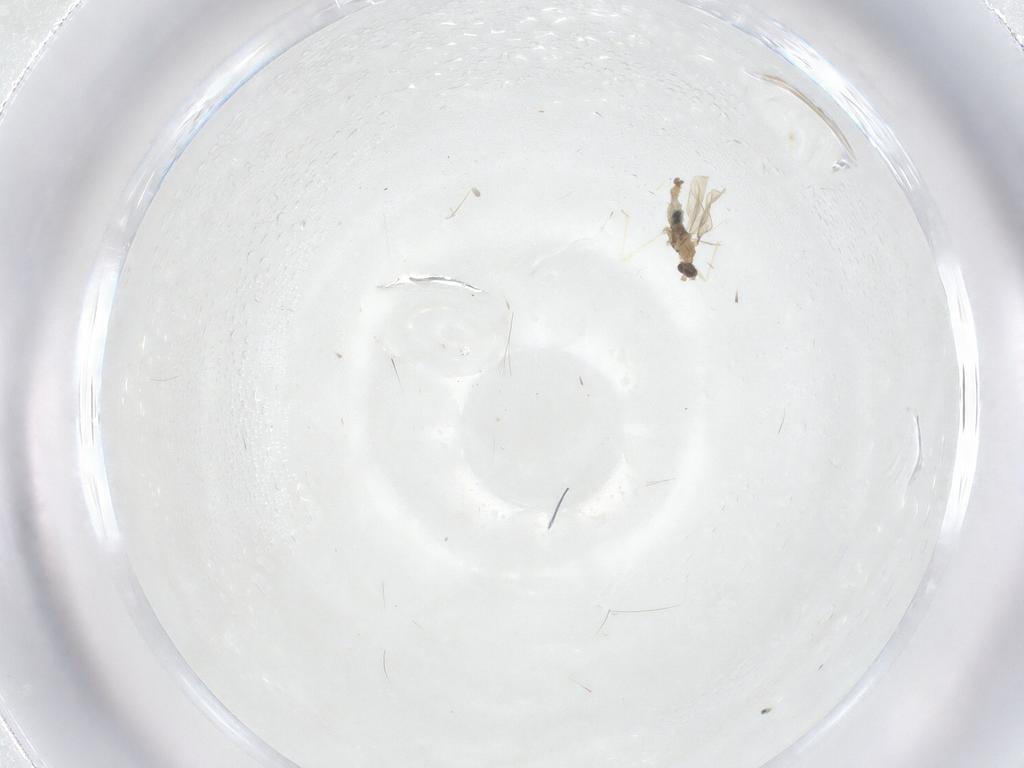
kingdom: Animalia
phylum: Arthropoda
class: Insecta
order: Diptera
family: Cecidomyiidae
